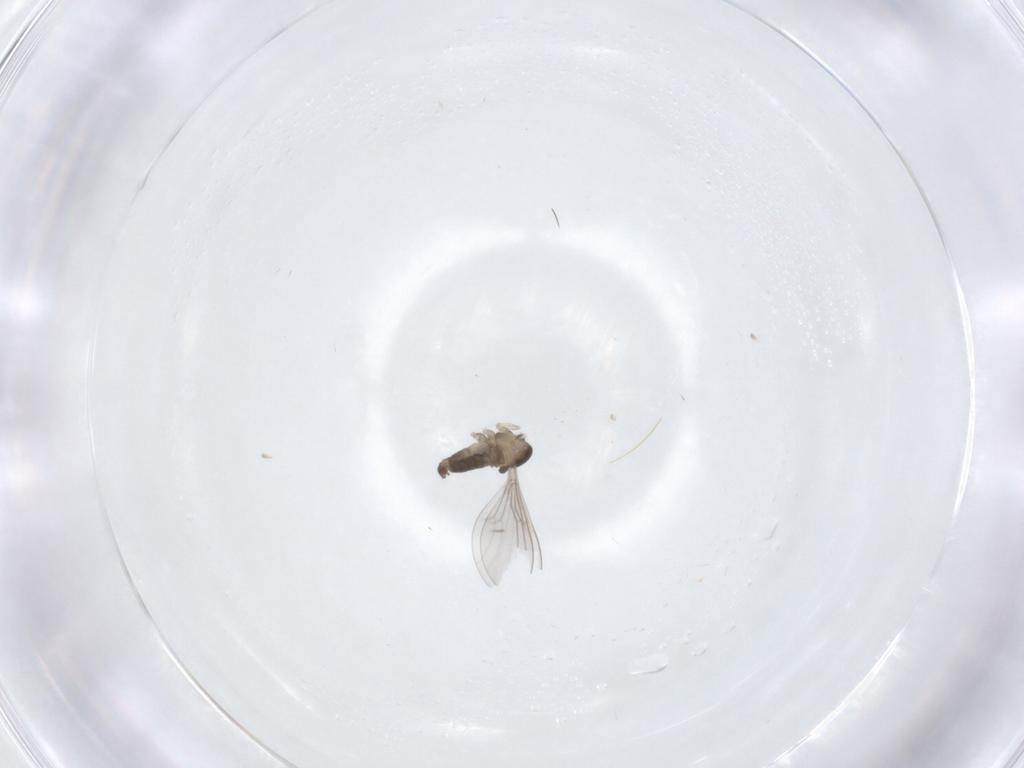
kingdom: Animalia
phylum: Arthropoda
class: Insecta
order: Diptera
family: Cecidomyiidae
